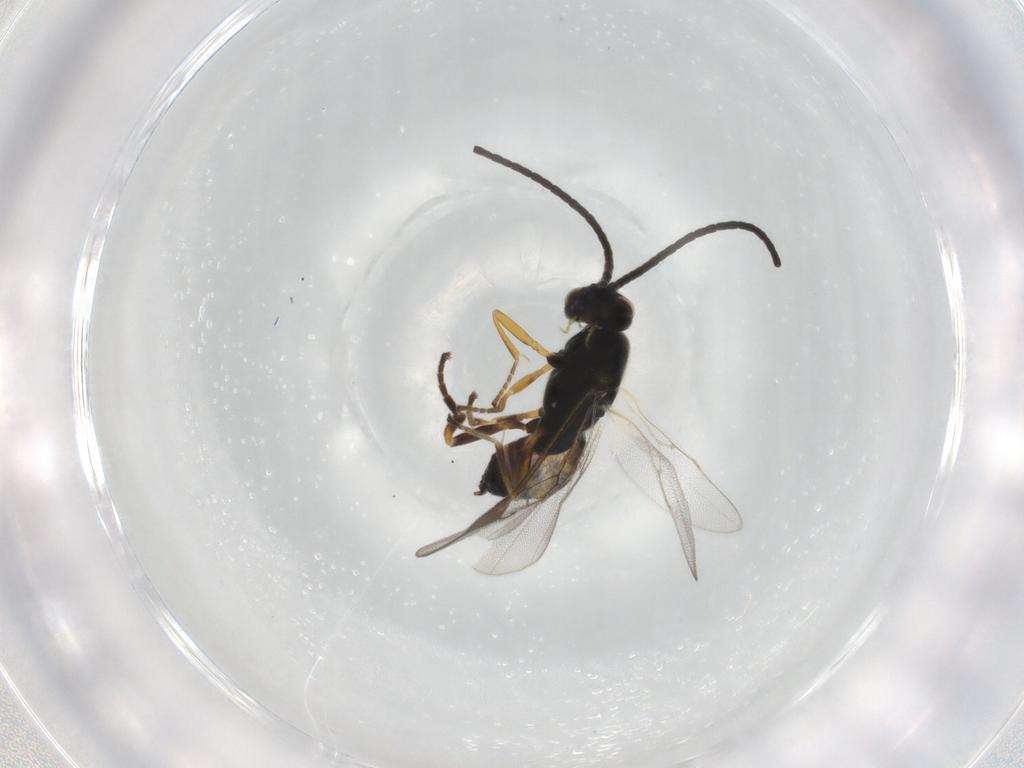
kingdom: Animalia
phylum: Arthropoda
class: Insecta
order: Hymenoptera
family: Braconidae
